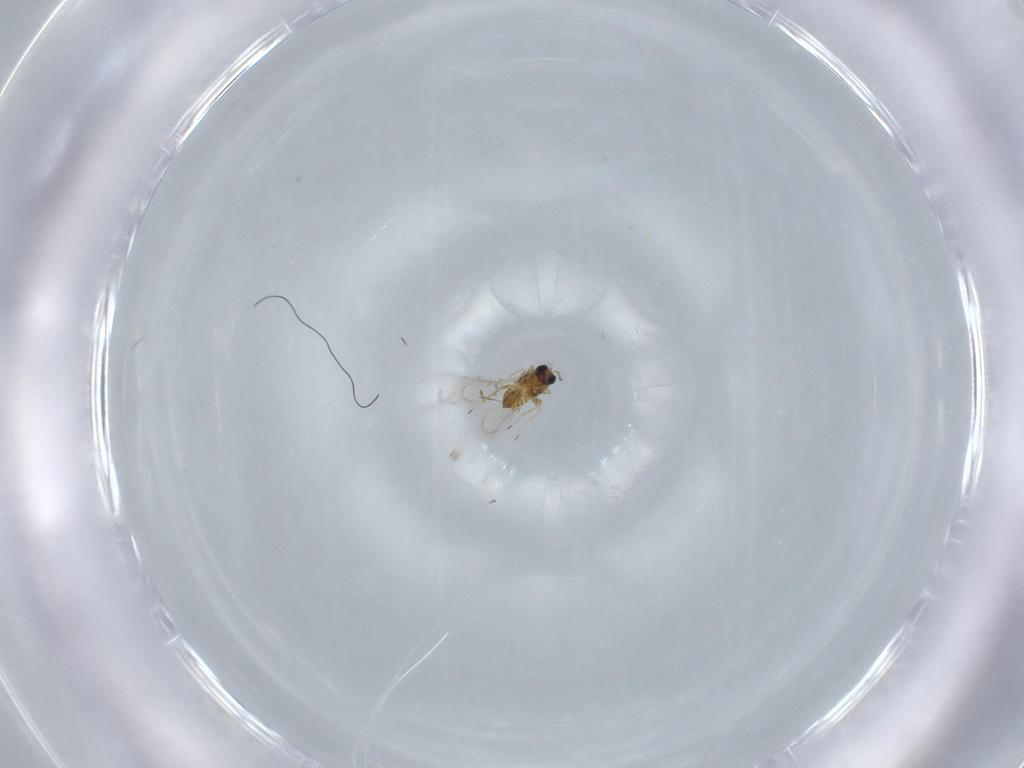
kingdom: Animalia
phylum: Arthropoda
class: Insecta
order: Hymenoptera
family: Trichogrammatidae
